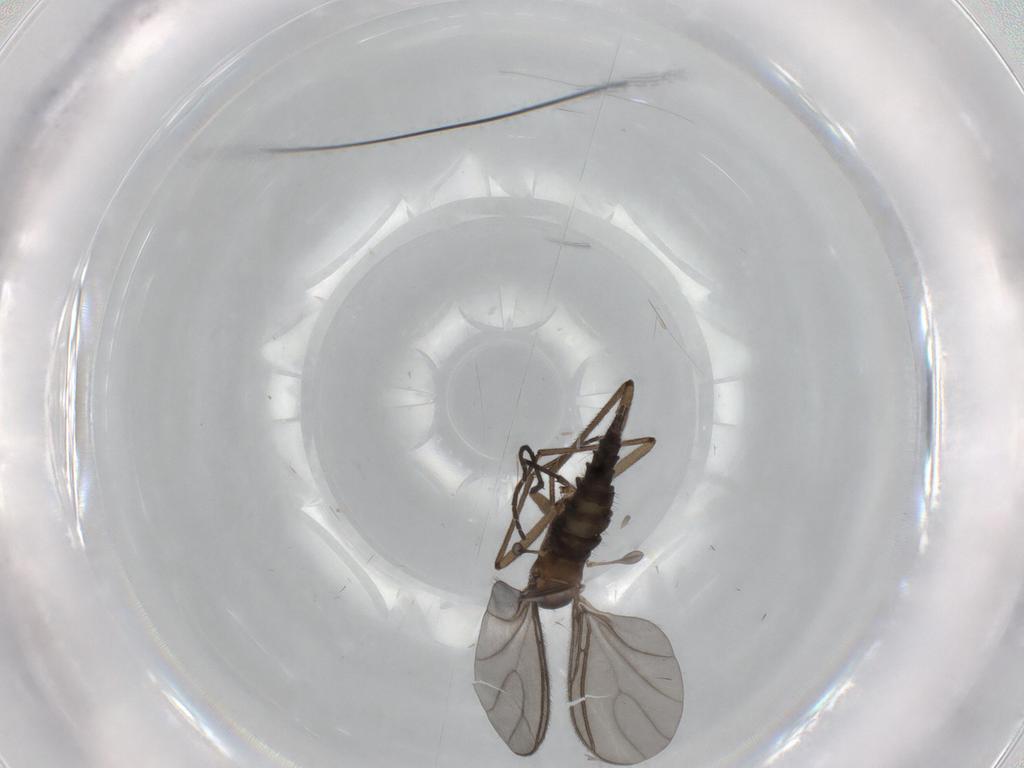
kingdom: Animalia
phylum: Arthropoda
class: Insecta
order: Diptera
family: Sciaridae
